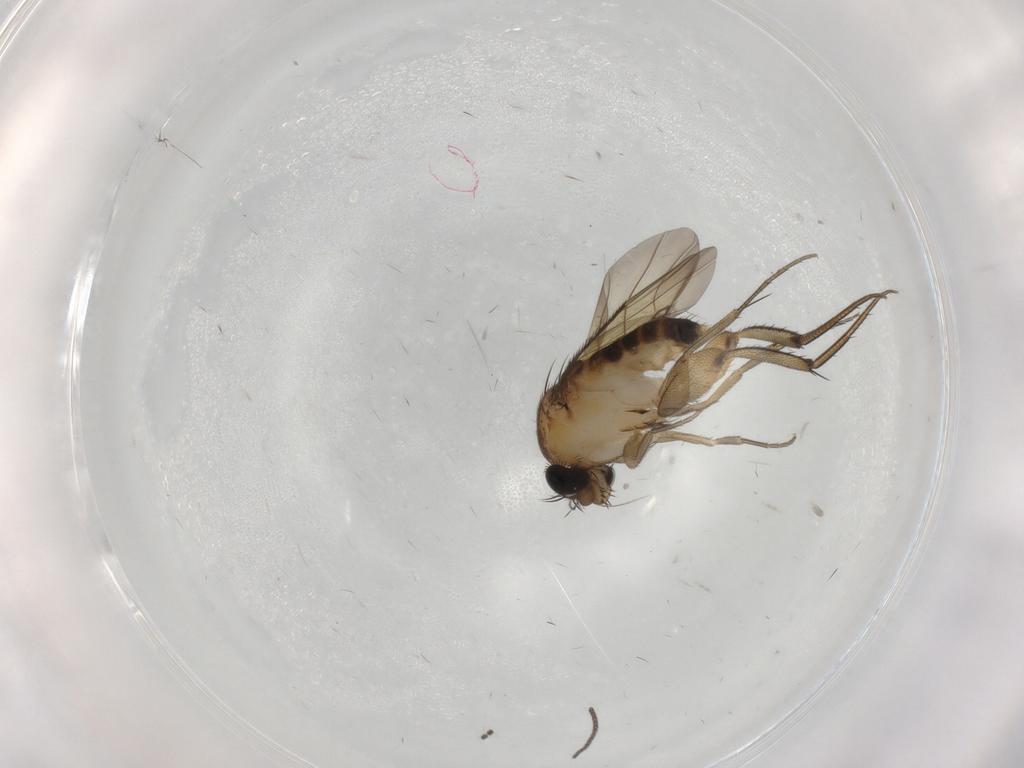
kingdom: Animalia
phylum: Arthropoda
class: Insecta
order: Diptera
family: Phoridae
